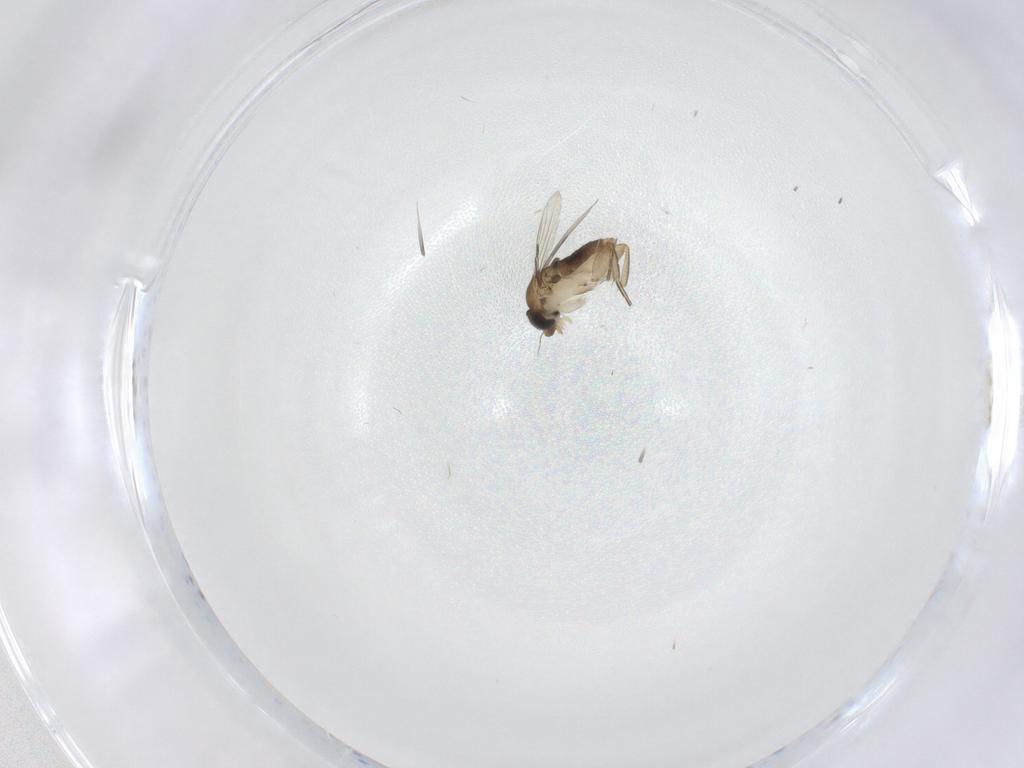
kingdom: Animalia
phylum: Arthropoda
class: Insecta
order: Diptera
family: Phoridae
